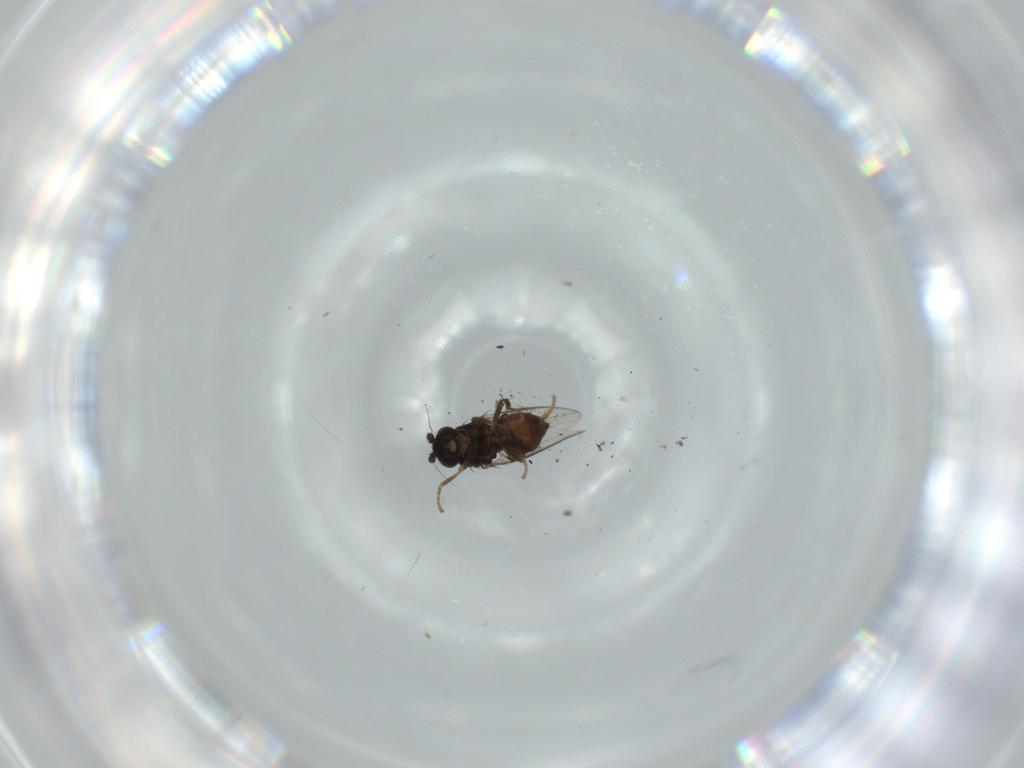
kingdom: Animalia
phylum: Arthropoda
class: Insecta
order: Diptera
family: Sphaeroceridae
